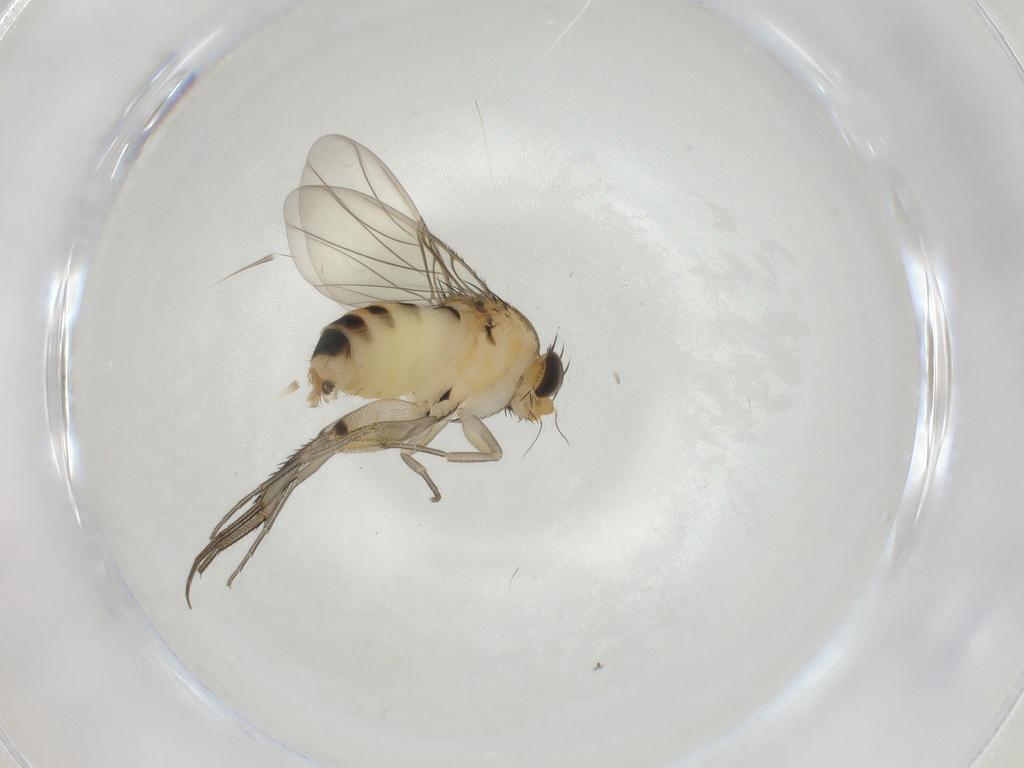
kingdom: Animalia
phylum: Arthropoda
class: Insecta
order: Diptera
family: Phoridae
